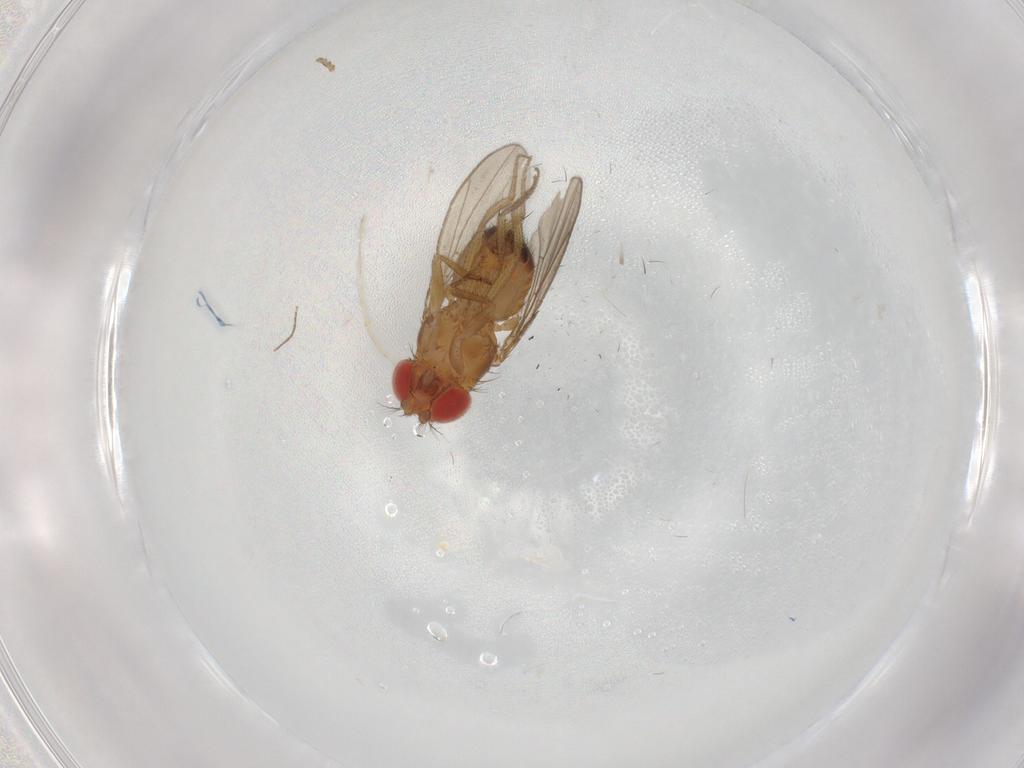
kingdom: Animalia
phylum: Arthropoda
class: Insecta
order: Diptera
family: Drosophilidae
